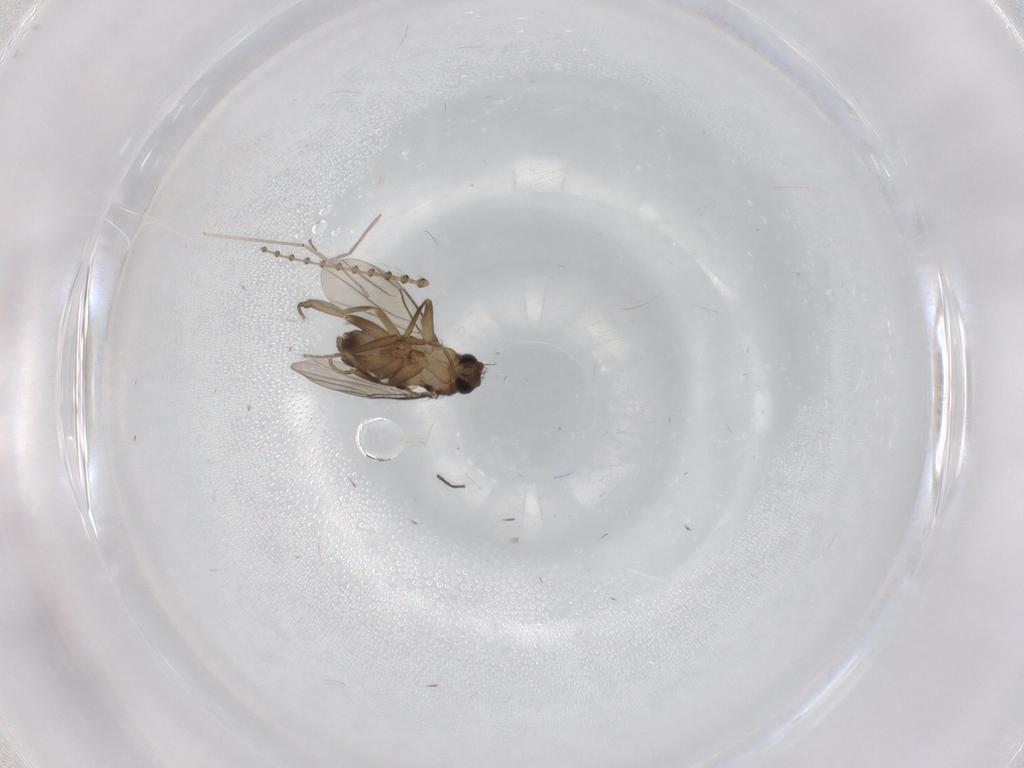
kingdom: Animalia
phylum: Arthropoda
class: Insecta
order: Diptera
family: Phoridae
